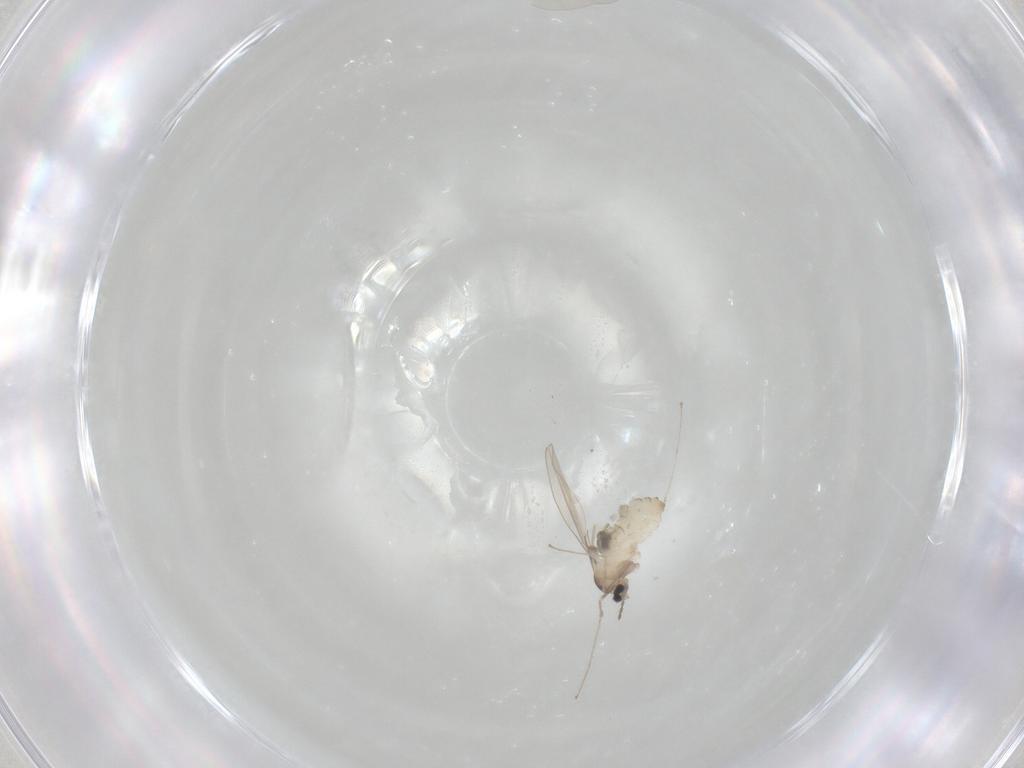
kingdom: Animalia
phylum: Arthropoda
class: Insecta
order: Diptera
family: Cecidomyiidae
